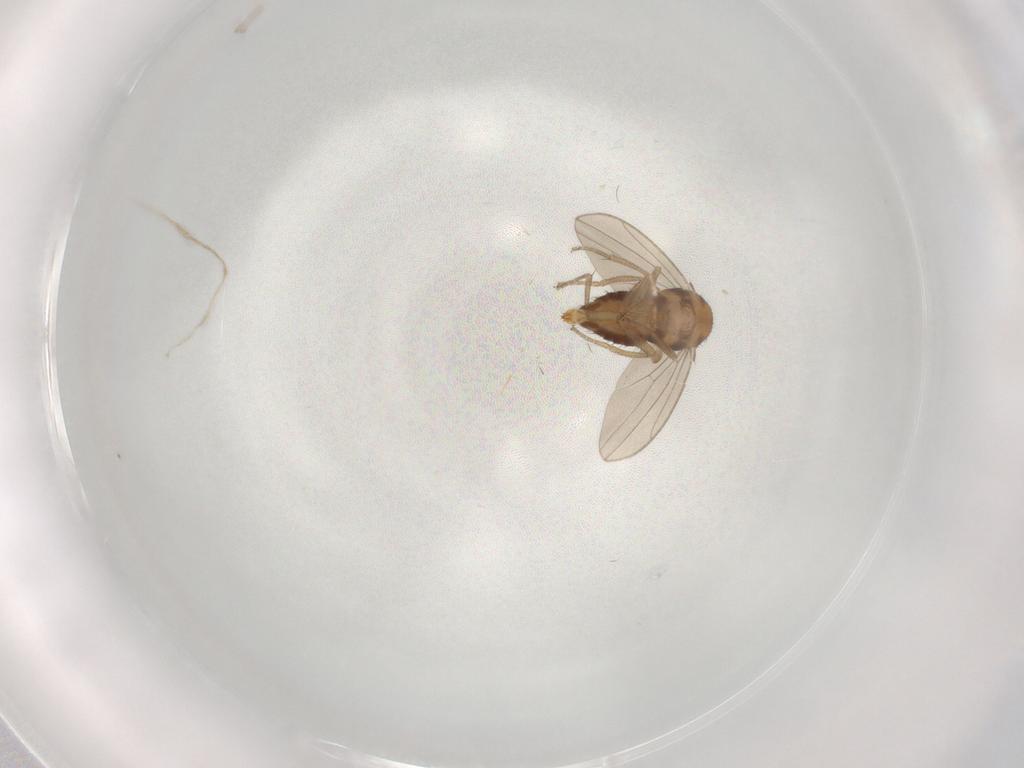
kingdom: Animalia
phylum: Arthropoda
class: Insecta
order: Diptera
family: Drosophilidae
